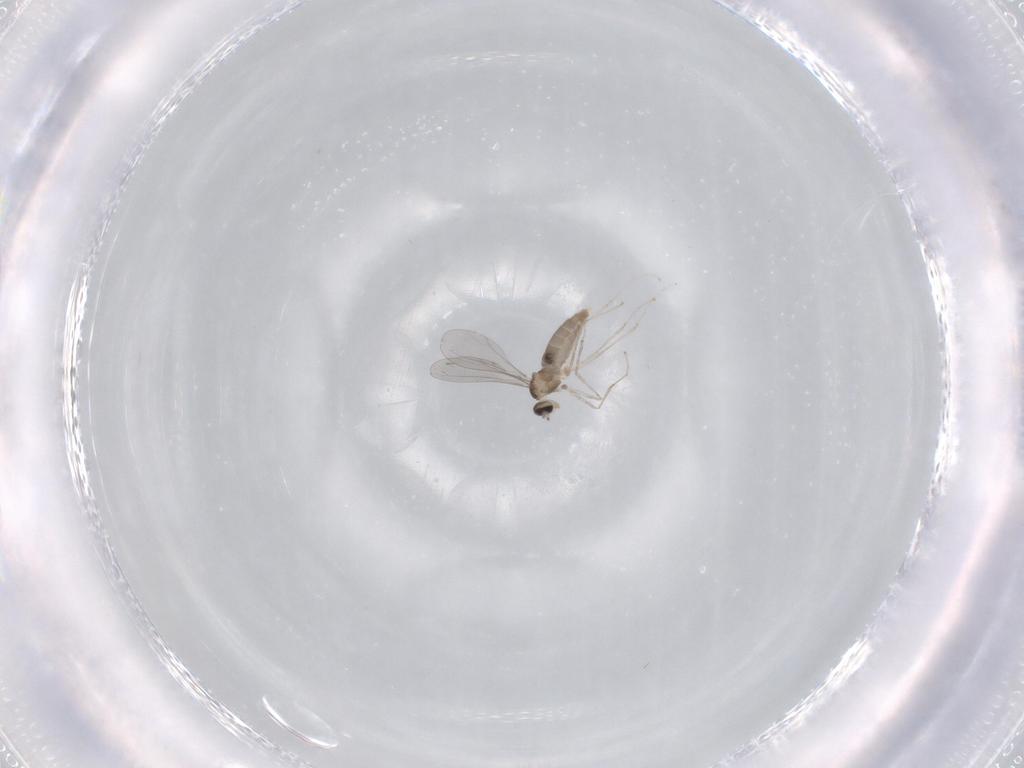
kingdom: Animalia
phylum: Arthropoda
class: Insecta
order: Diptera
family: Cecidomyiidae
